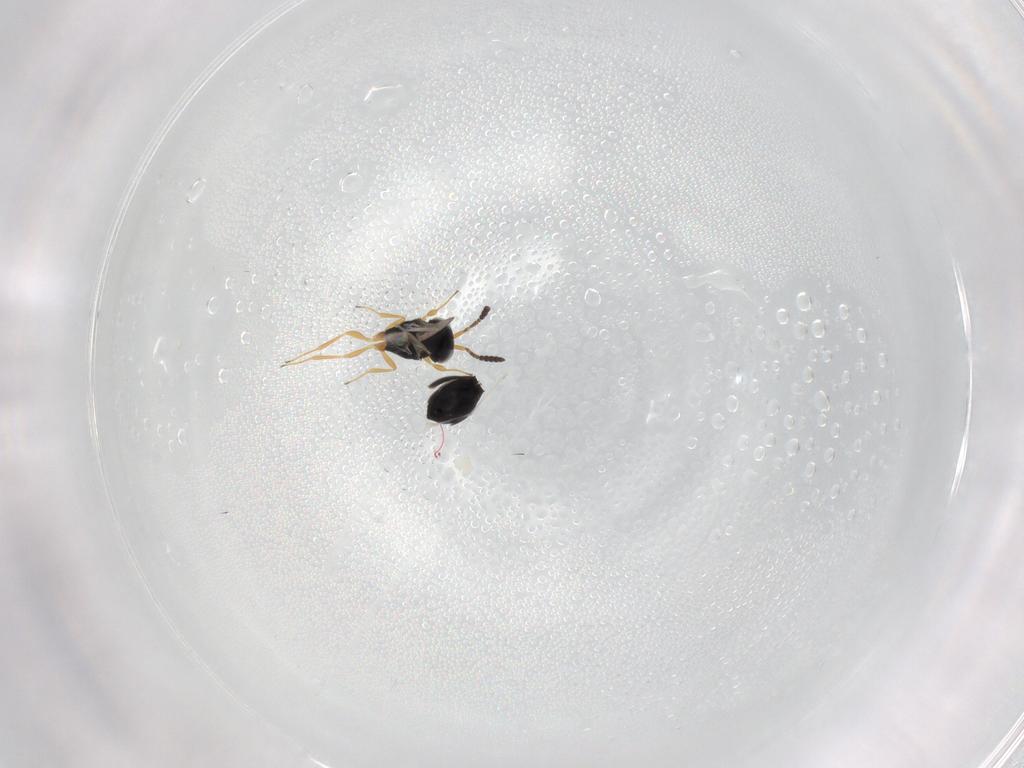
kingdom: Animalia
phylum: Arthropoda
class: Insecta
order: Hymenoptera
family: Scelionidae
